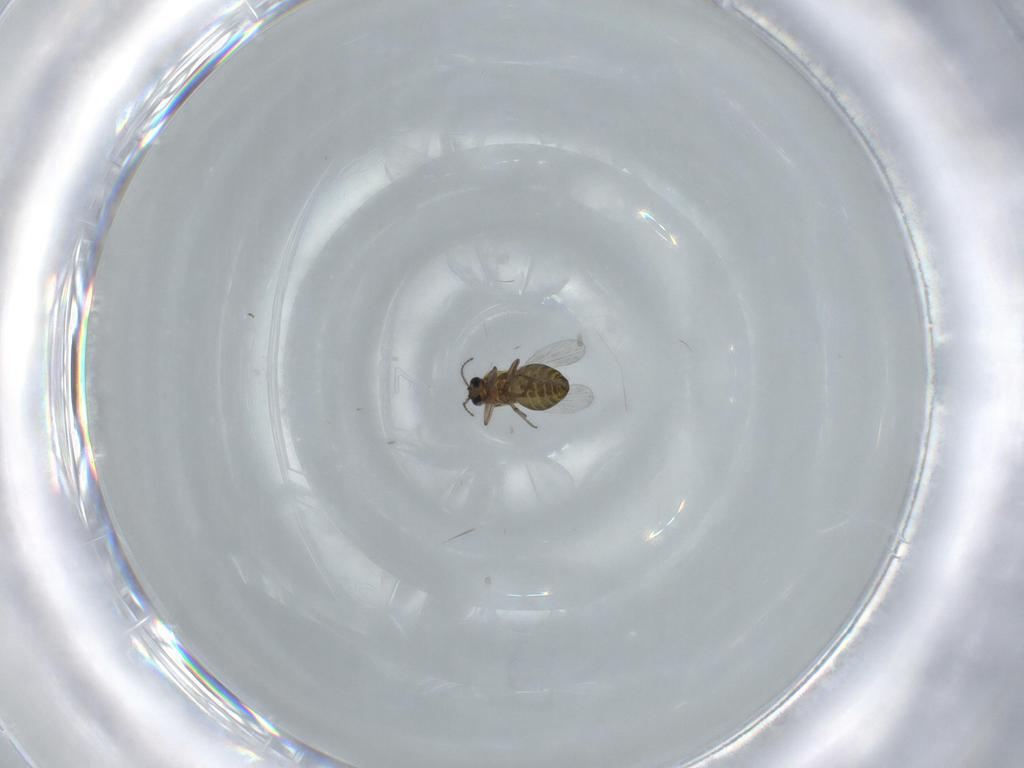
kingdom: Animalia
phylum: Arthropoda
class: Insecta
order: Diptera
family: Ceratopogonidae
